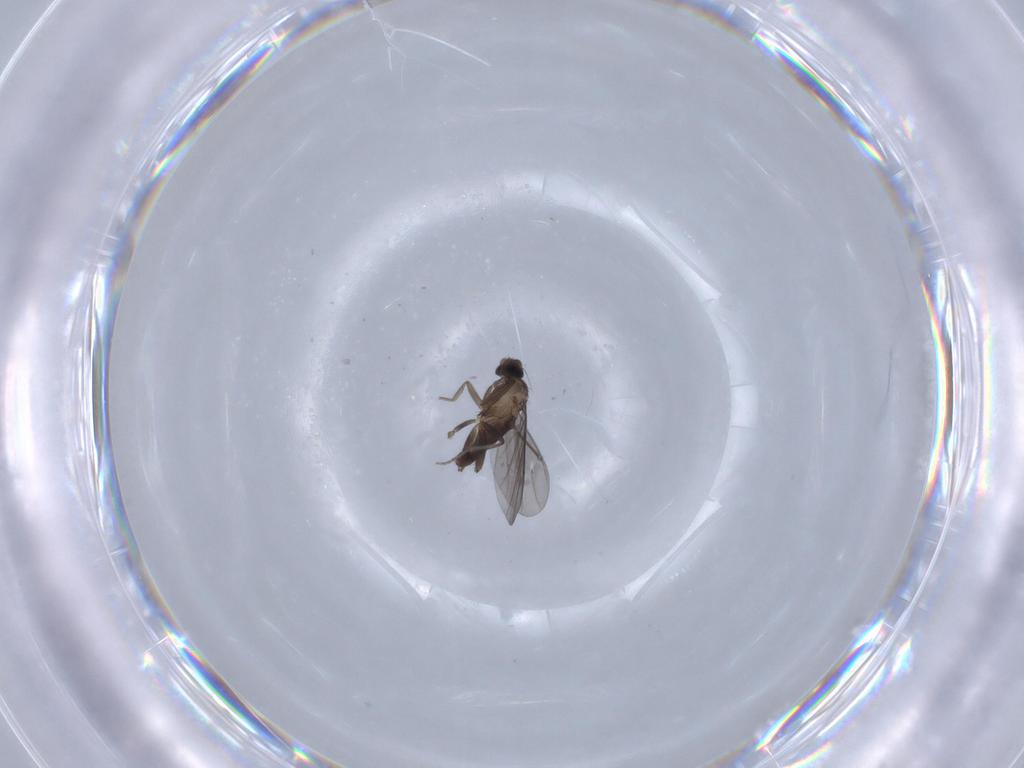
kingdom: Animalia
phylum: Arthropoda
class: Insecta
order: Diptera
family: Phoridae
